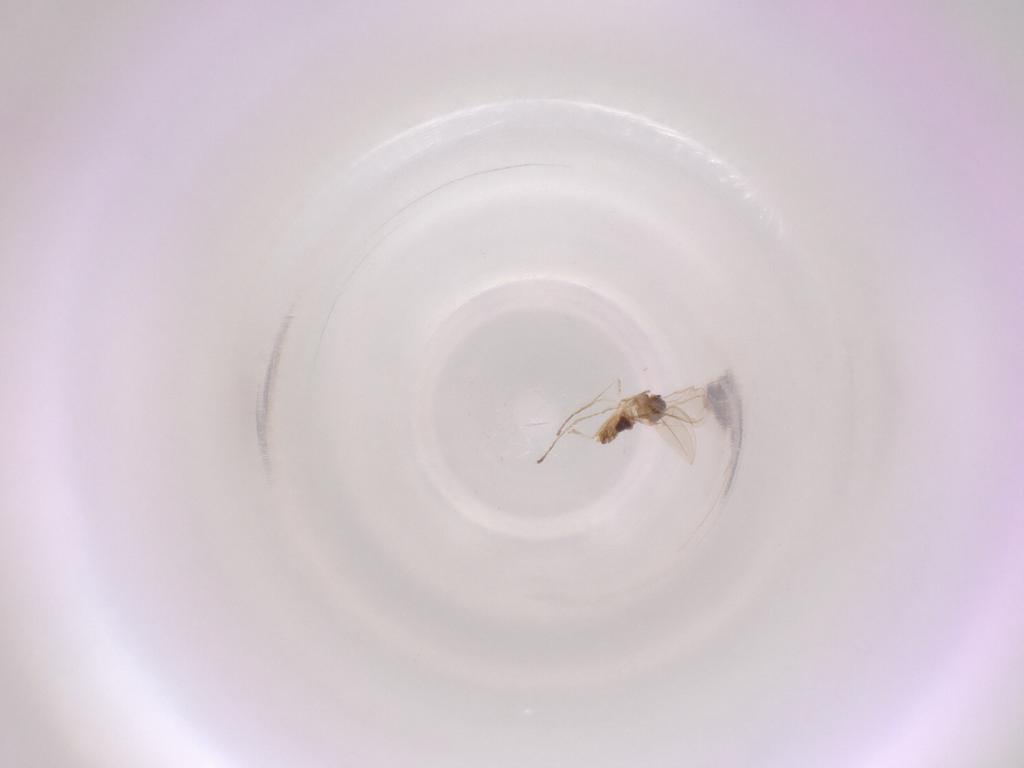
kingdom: Animalia
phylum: Arthropoda
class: Insecta
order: Diptera
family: Cecidomyiidae
